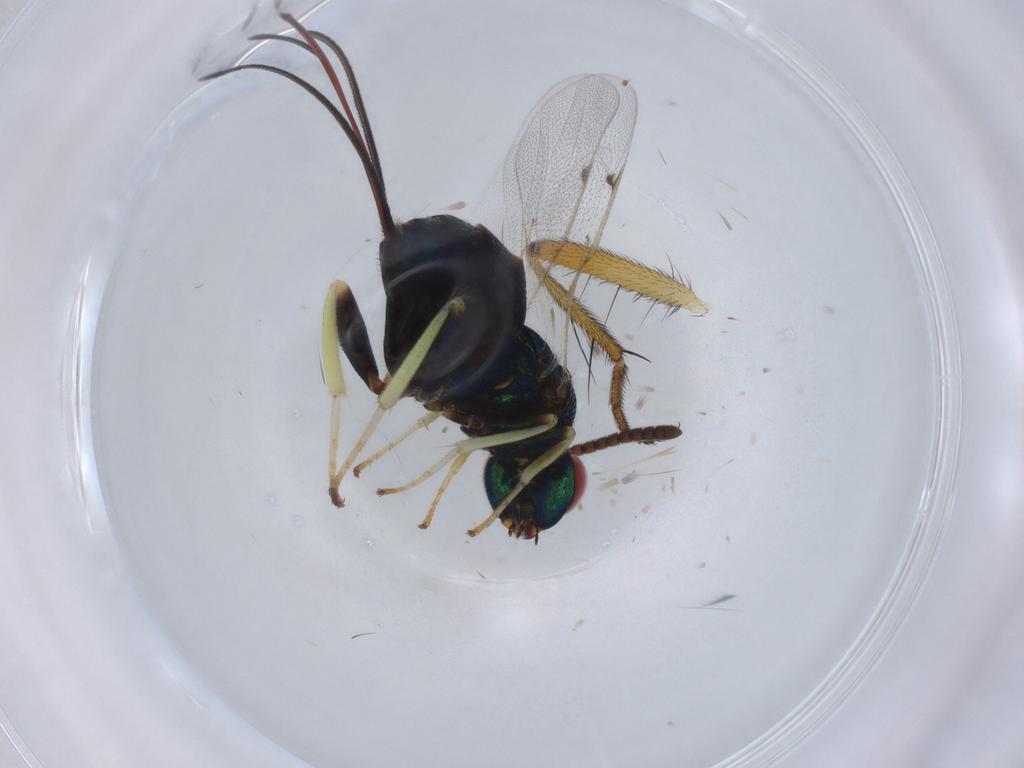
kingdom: Animalia
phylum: Arthropoda
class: Insecta
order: Hymenoptera
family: Torymidae
